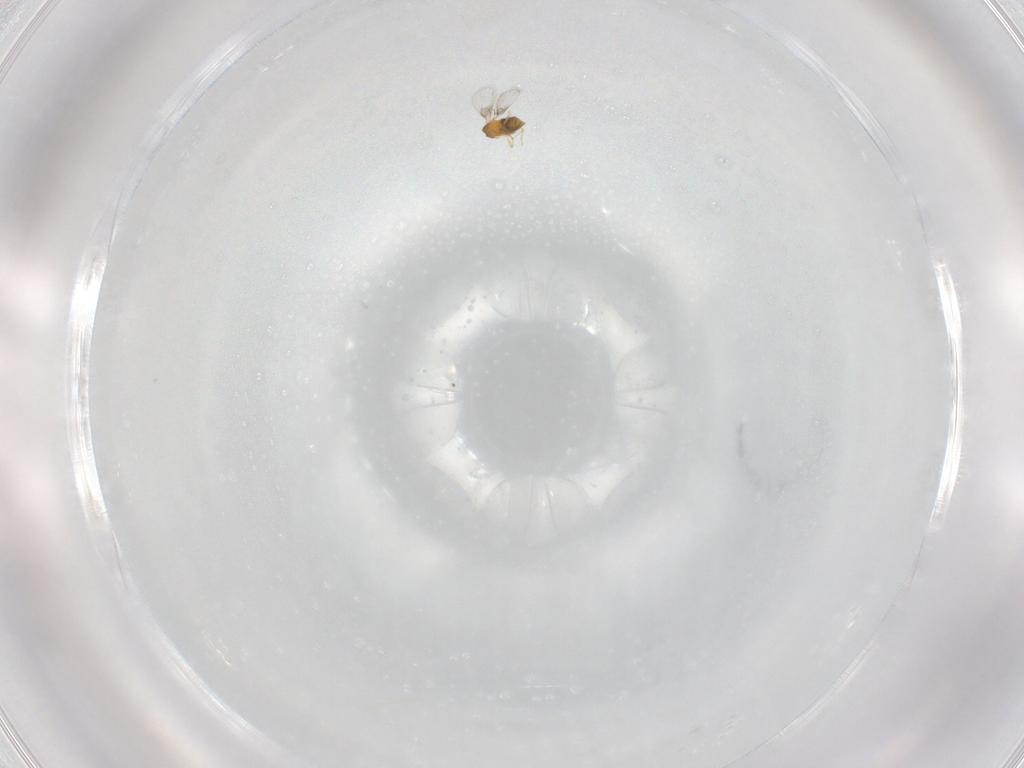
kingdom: Animalia
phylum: Arthropoda
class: Insecta
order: Hymenoptera
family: Trichogrammatidae
